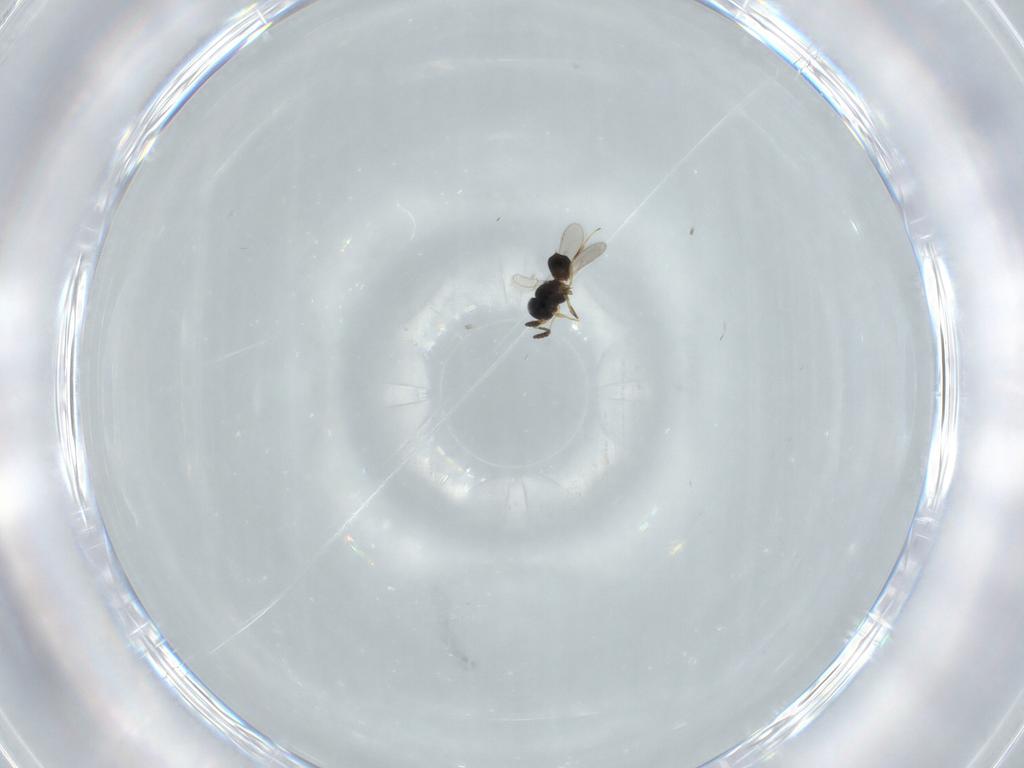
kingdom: Animalia
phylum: Arthropoda
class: Insecta
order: Hymenoptera
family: Scelionidae
